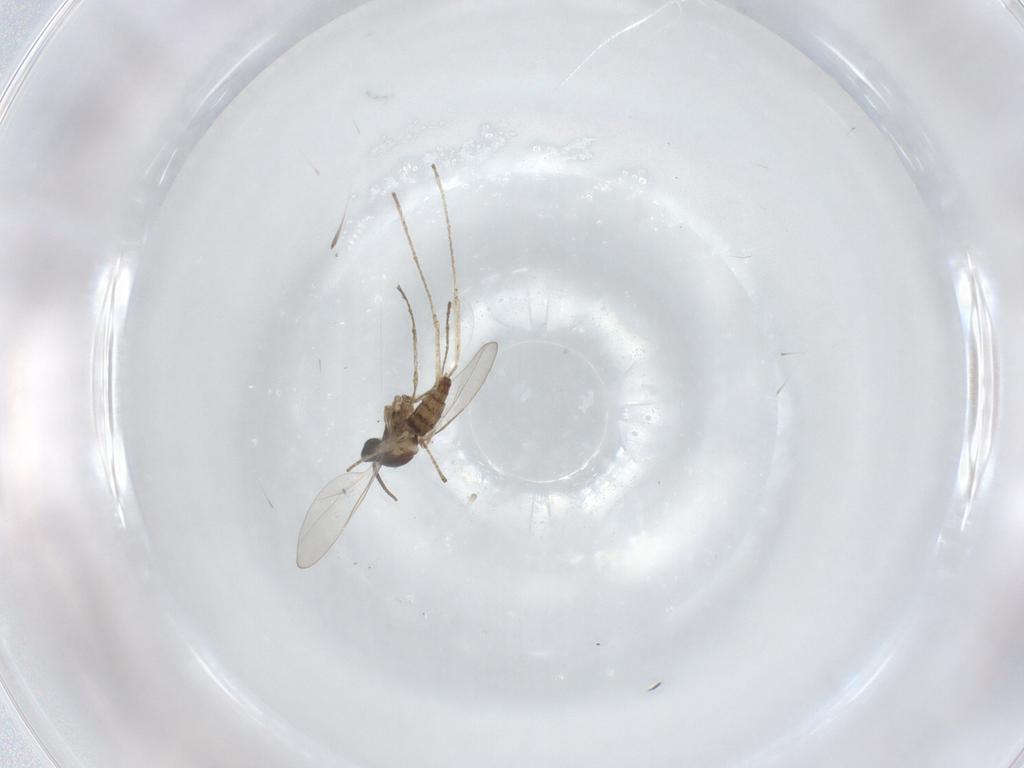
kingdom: Animalia
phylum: Arthropoda
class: Insecta
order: Diptera
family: Cecidomyiidae
